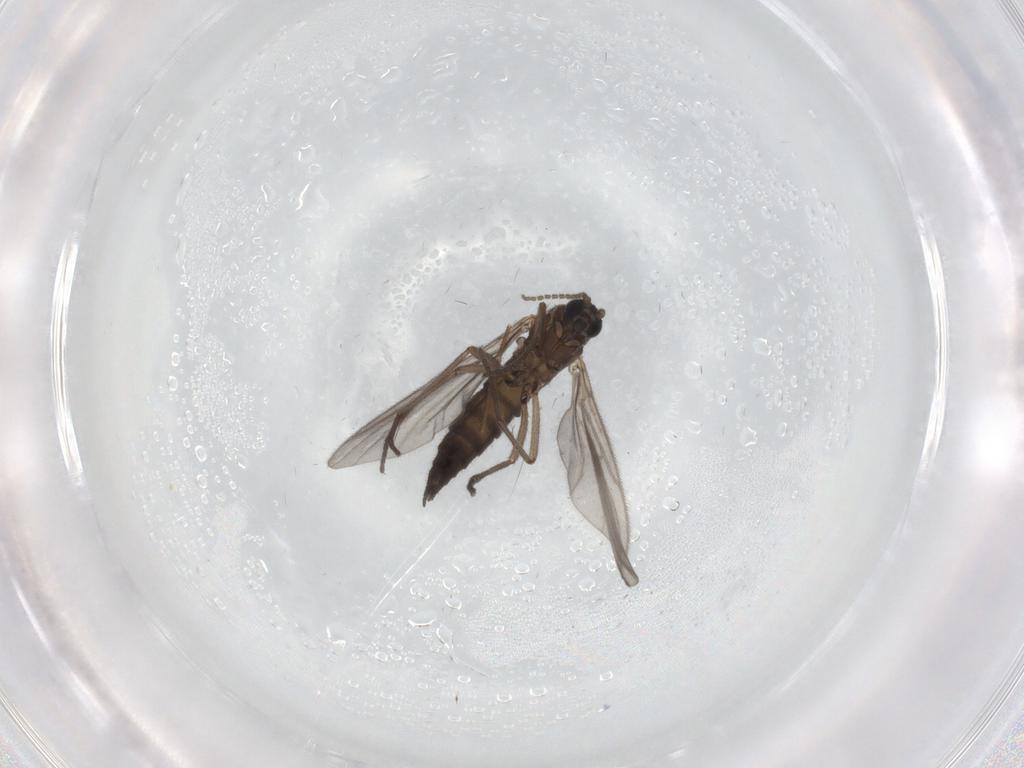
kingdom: Animalia
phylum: Arthropoda
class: Insecta
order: Diptera
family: Sciaridae
